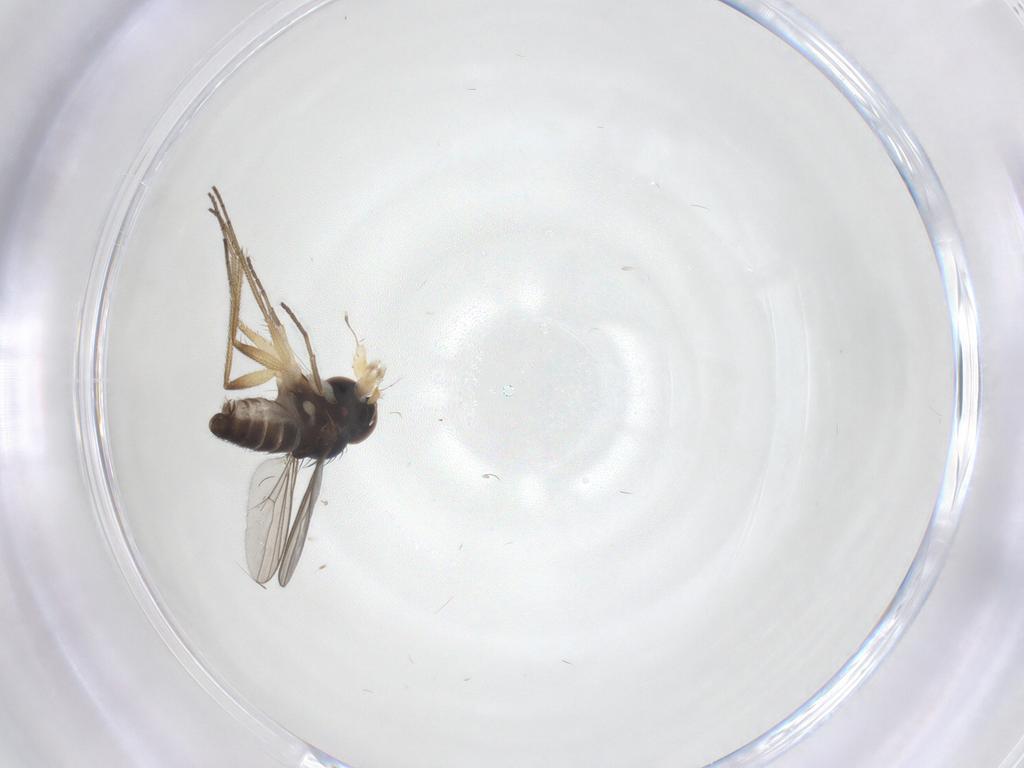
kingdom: Animalia
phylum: Arthropoda
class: Insecta
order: Diptera
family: Dolichopodidae
